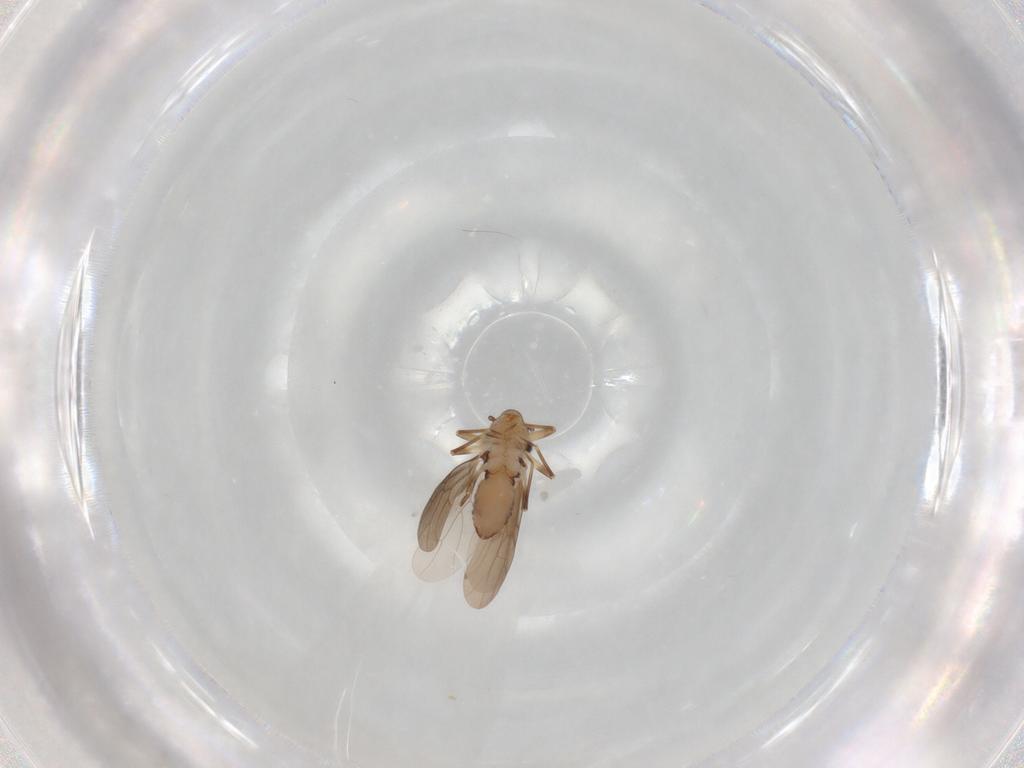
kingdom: Animalia
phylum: Arthropoda
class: Insecta
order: Psocodea
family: Lepidopsocidae
